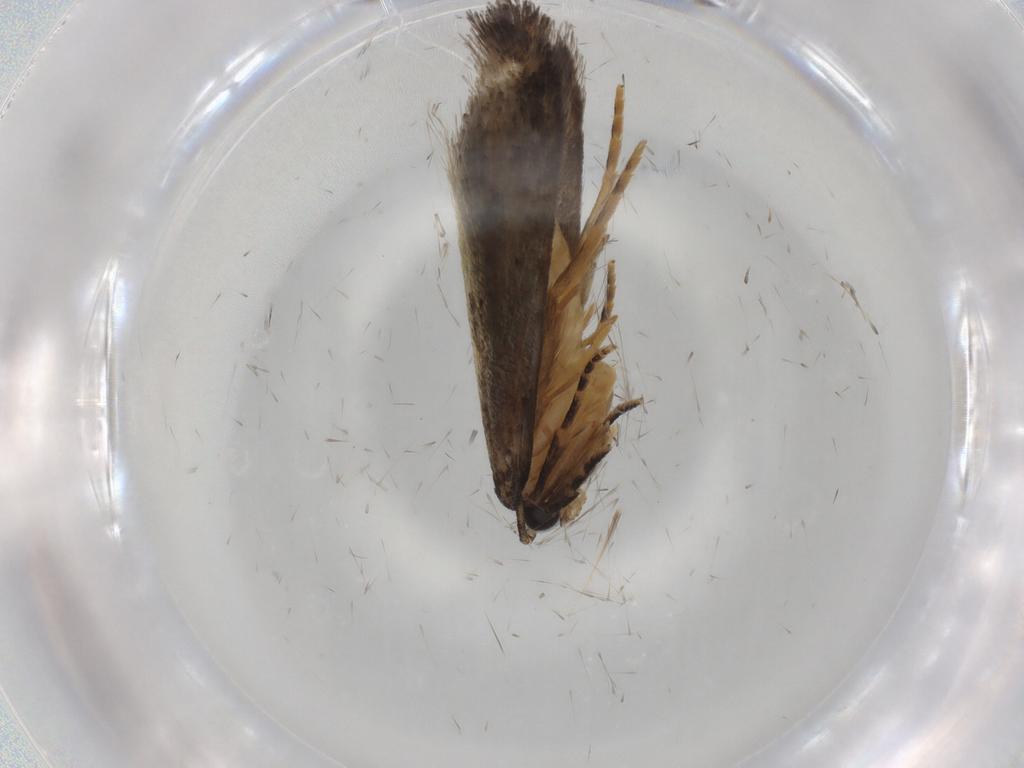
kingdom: Animalia
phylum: Arthropoda
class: Insecta
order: Lepidoptera
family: Tineidae
